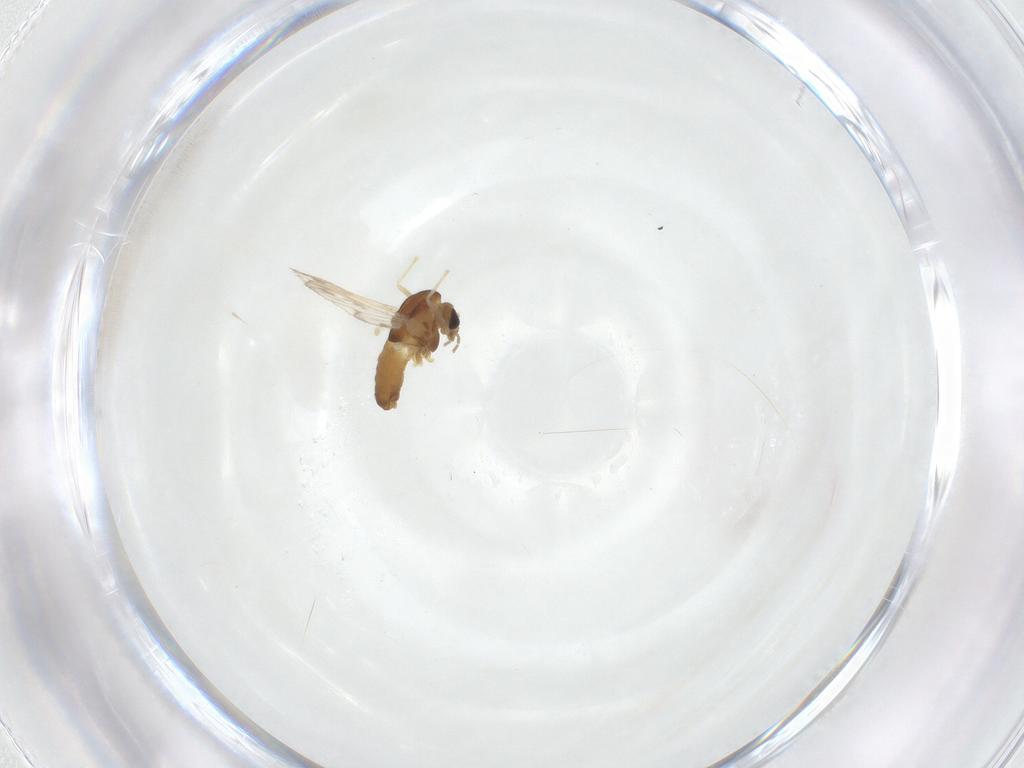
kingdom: Animalia
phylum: Arthropoda
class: Insecta
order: Diptera
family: Chironomidae
